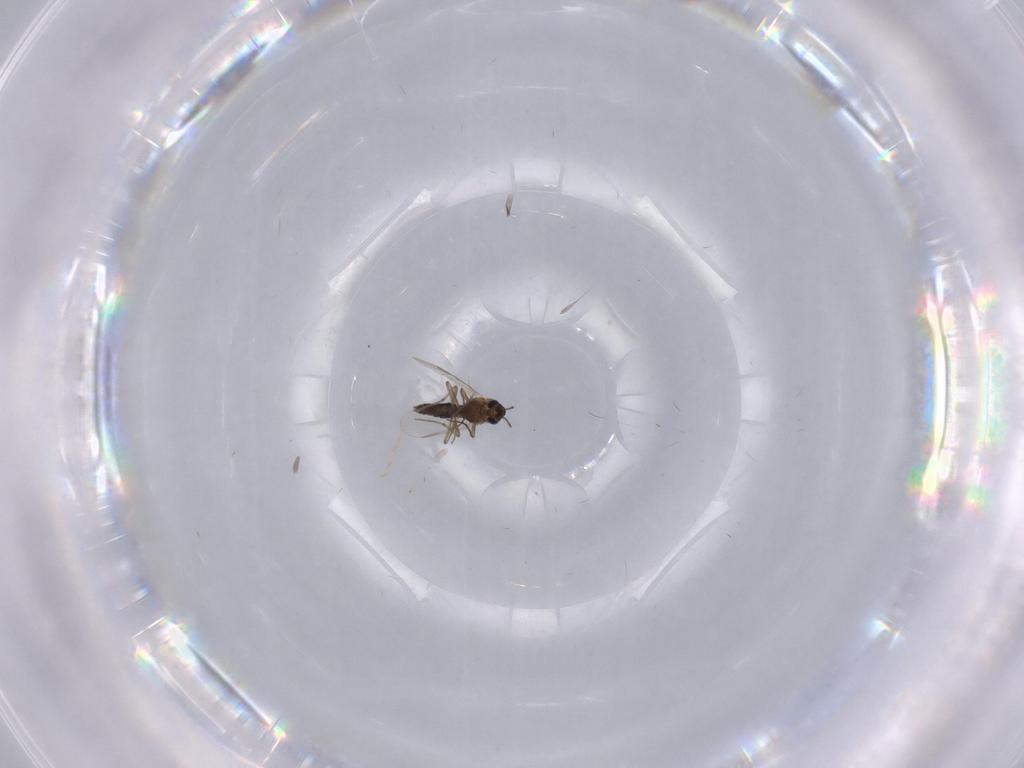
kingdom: Animalia
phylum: Arthropoda
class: Insecta
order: Diptera
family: Chironomidae
